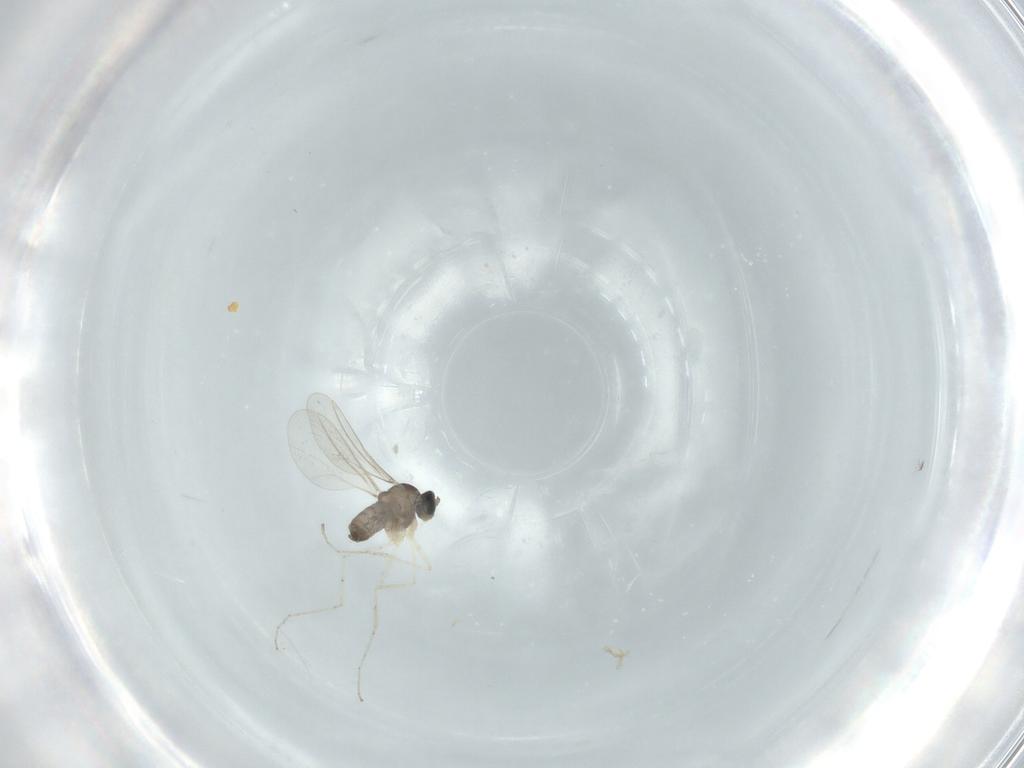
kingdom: Animalia
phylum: Arthropoda
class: Insecta
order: Diptera
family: Cecidomyiidae
